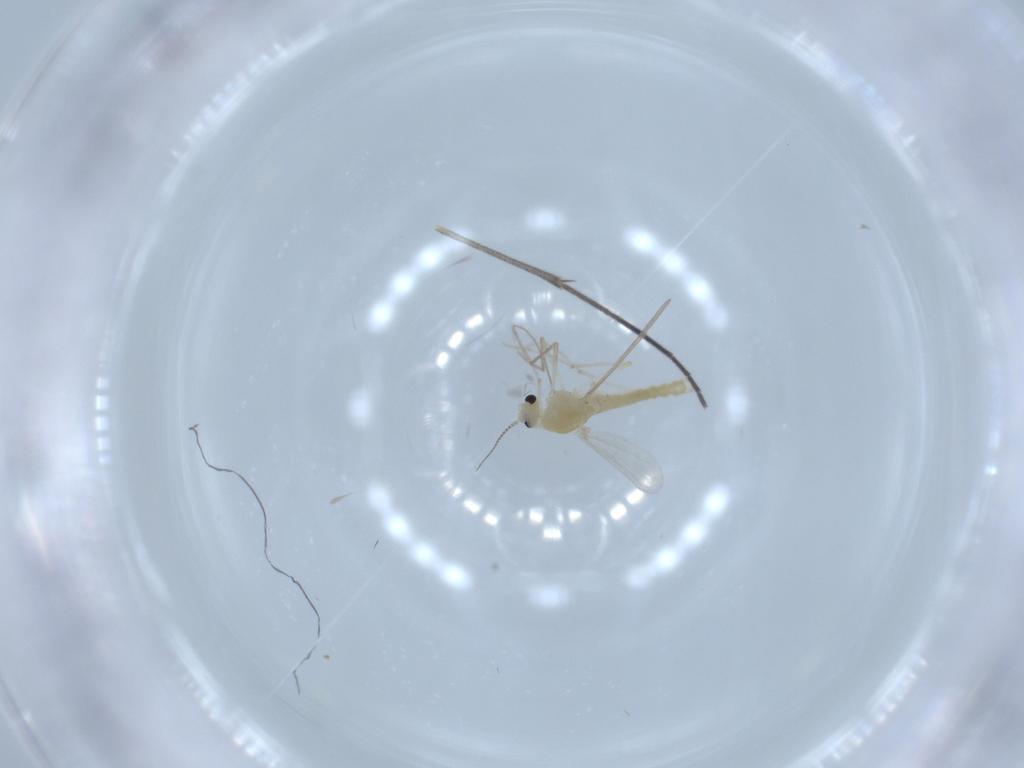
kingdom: Animalia
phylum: Arthropoda
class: Insecta
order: Diptera
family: Chironomidae
